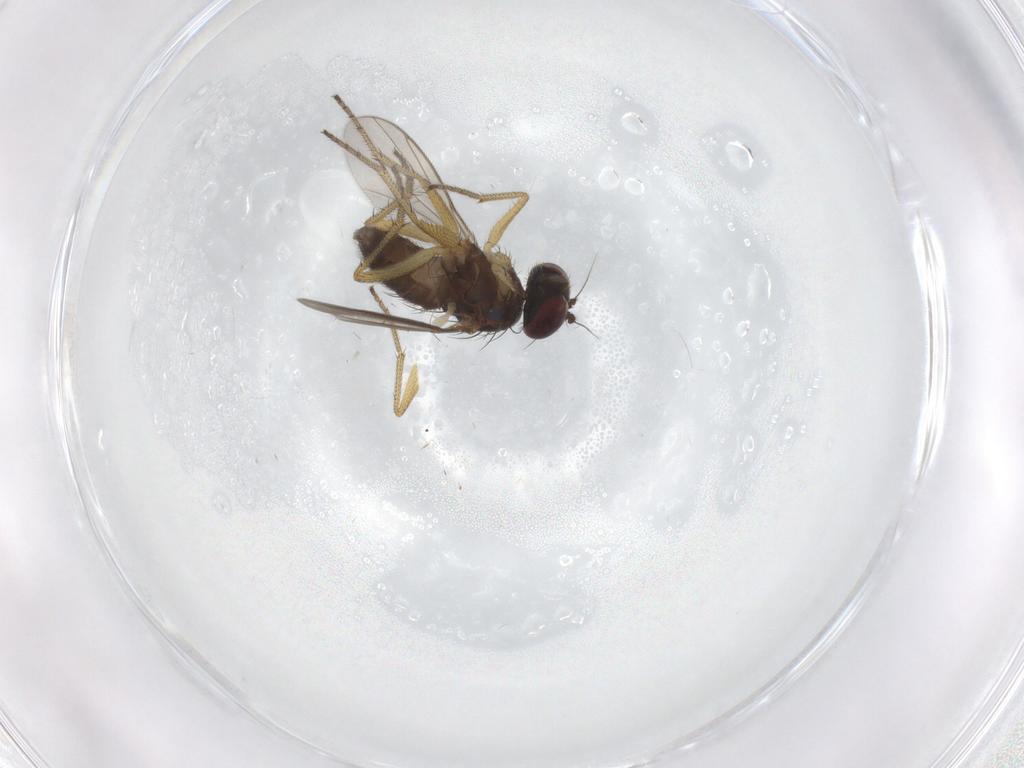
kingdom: Animalia
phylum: Arthropoda
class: Insecta
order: Diptera
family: Dolichopodidae
